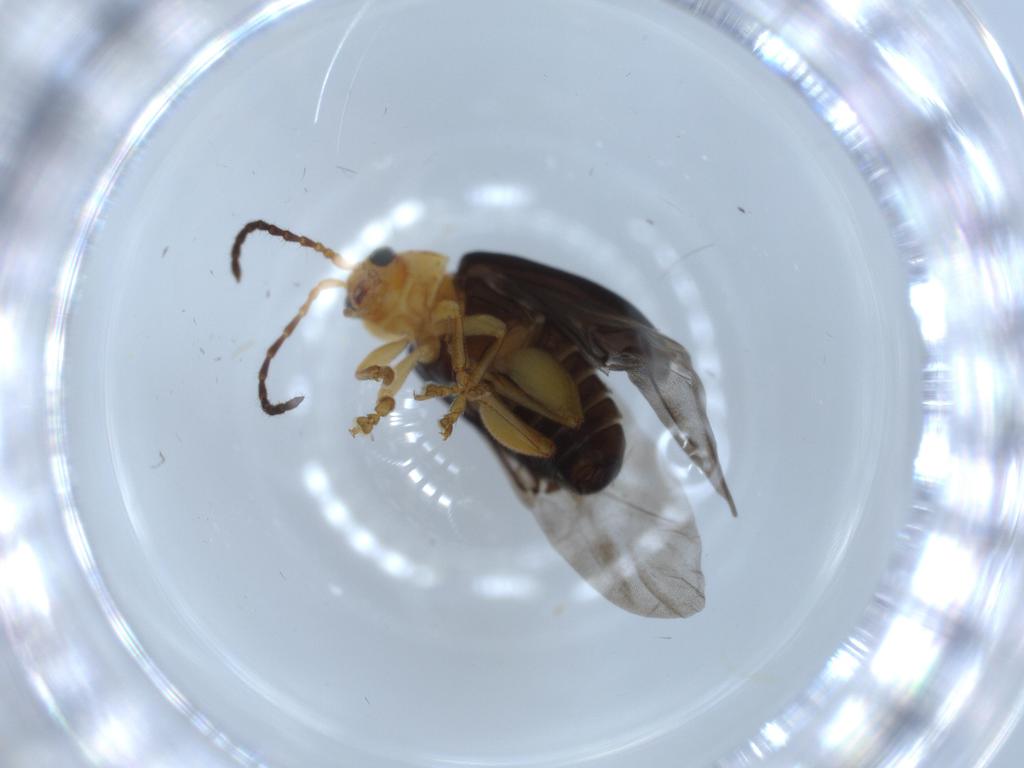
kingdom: Animalia
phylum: Arthropoda
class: Insecta
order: Coleoptera
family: Chrysomelidae
